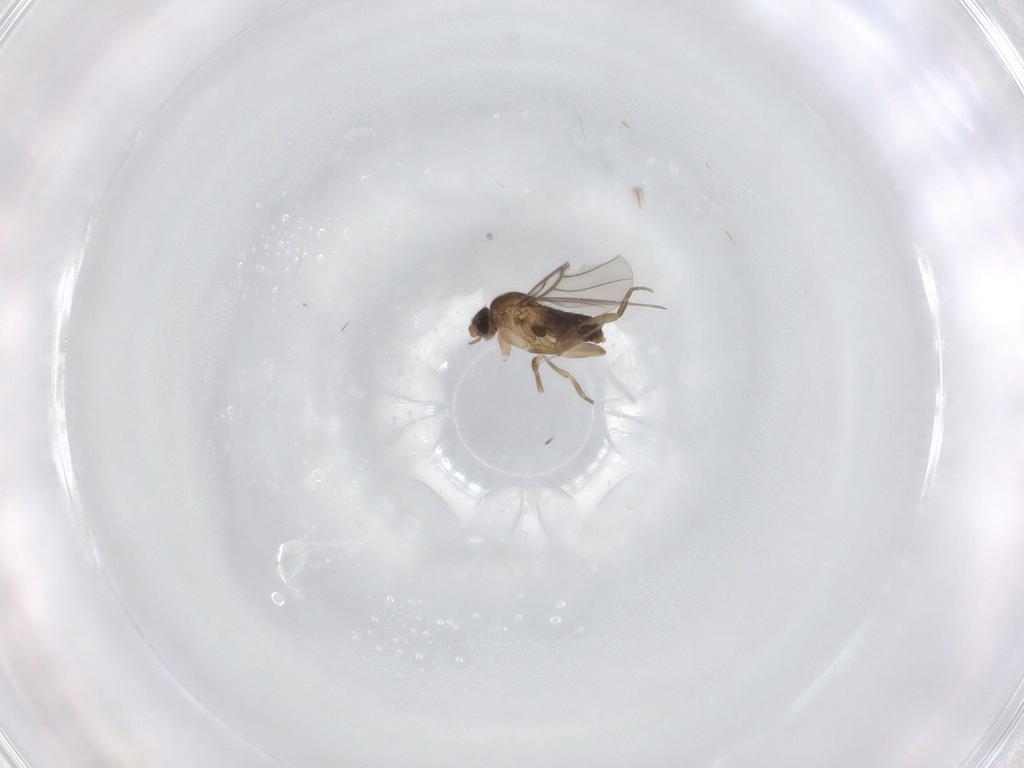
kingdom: Animalia
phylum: Arthropoda
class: Insecta
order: Diptera
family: Phoridae
